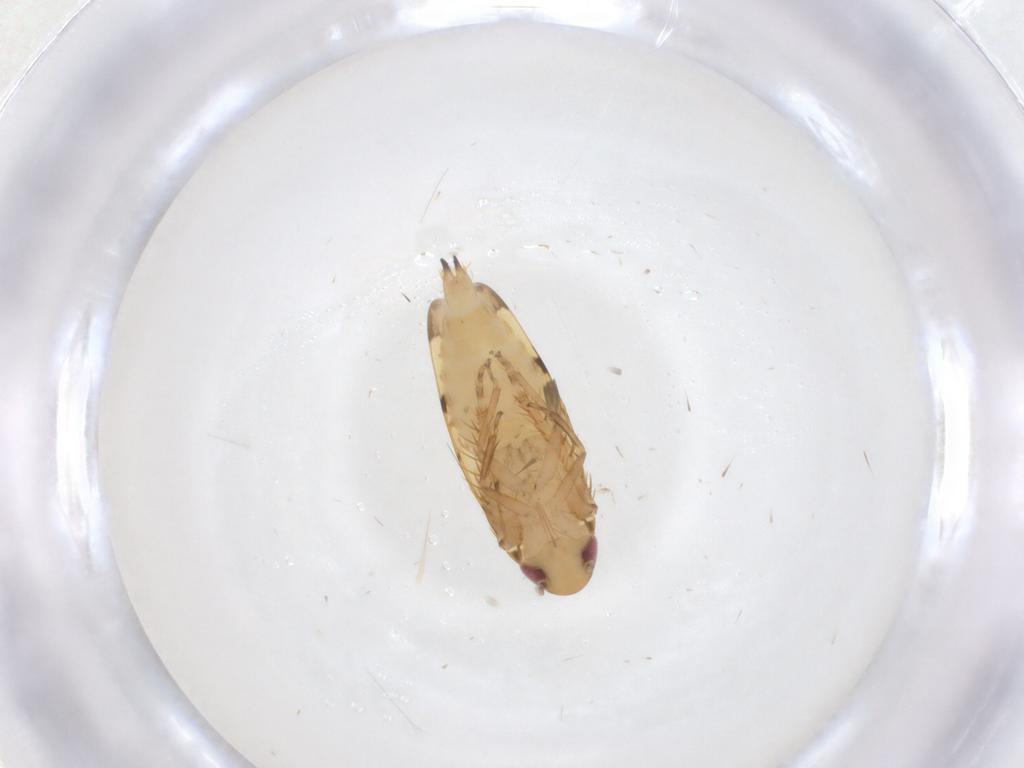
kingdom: Animalia
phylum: Arthropoda
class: Insecta
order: Hemiptera
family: Cicadellidae
